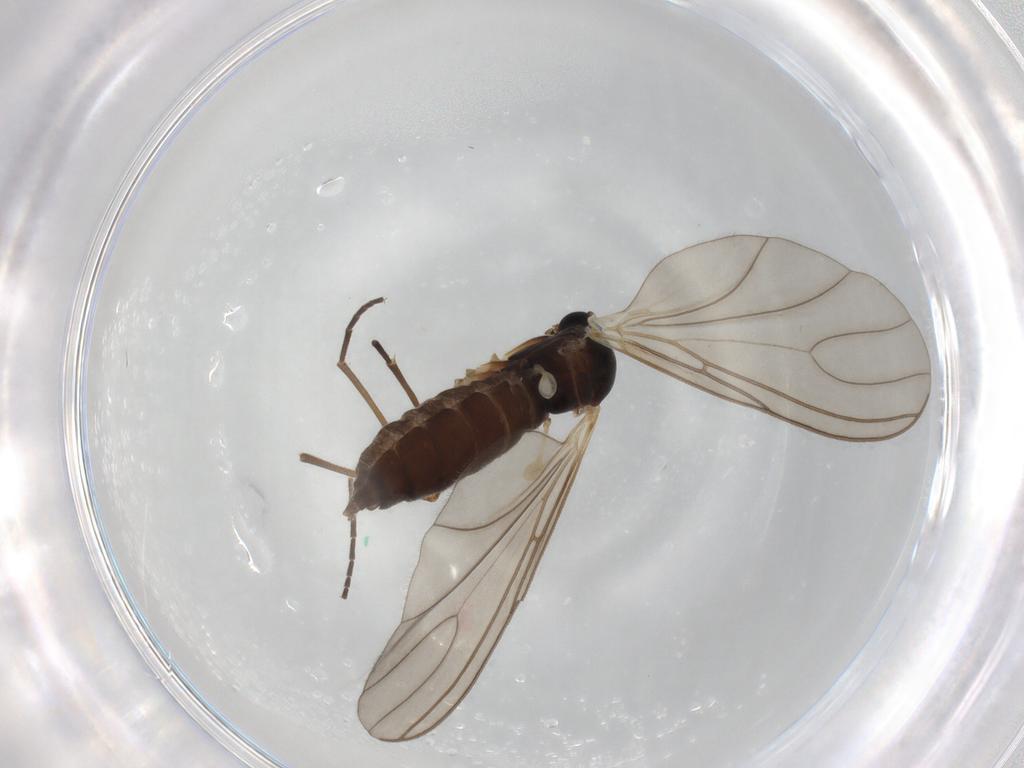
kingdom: Animalia
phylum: Arthropoda
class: Insecta
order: Diptera
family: Sciaridae
